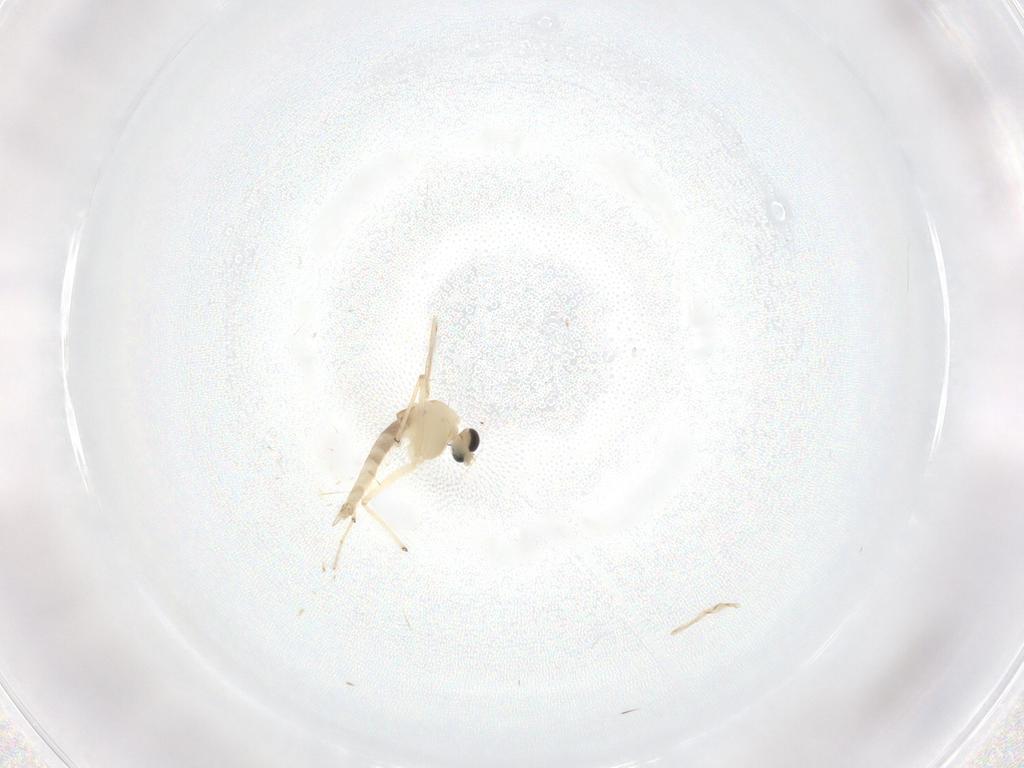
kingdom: Animalia
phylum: Arthropoda
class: Insecta
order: Diptera
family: Chironomidae
